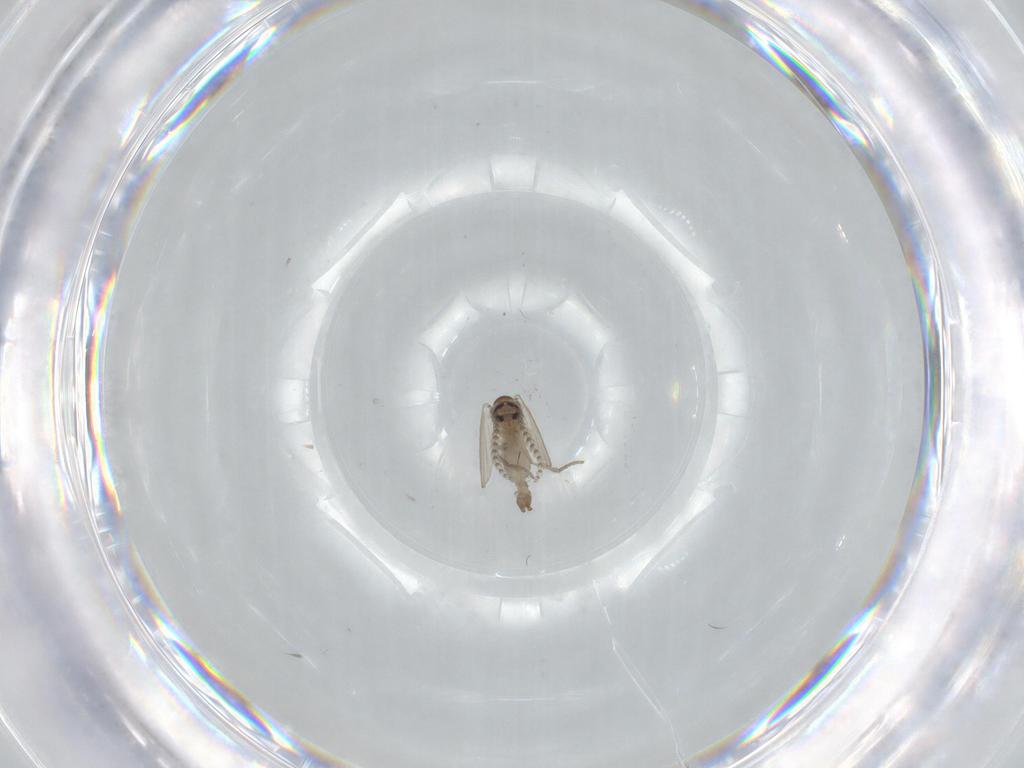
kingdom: Animalia
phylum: Arthropoda
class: Insecta
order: Diptera
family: Psychodidae
